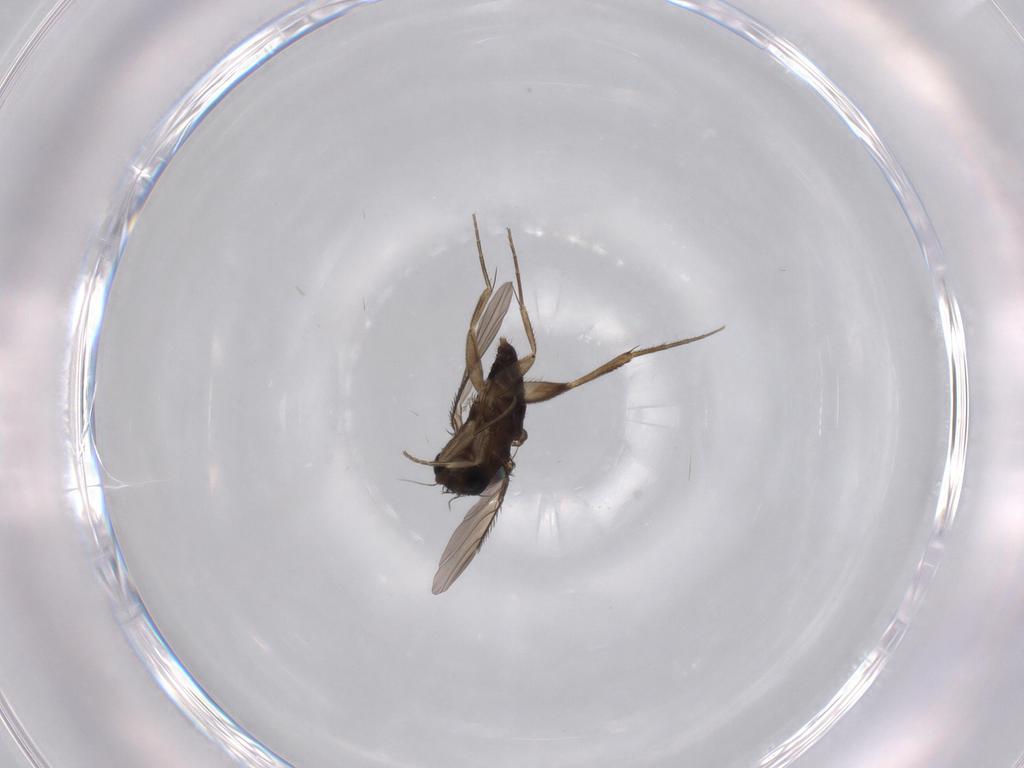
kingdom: Animalia
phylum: Arthropoda
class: Insecta
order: Diptera
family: Phoridae
